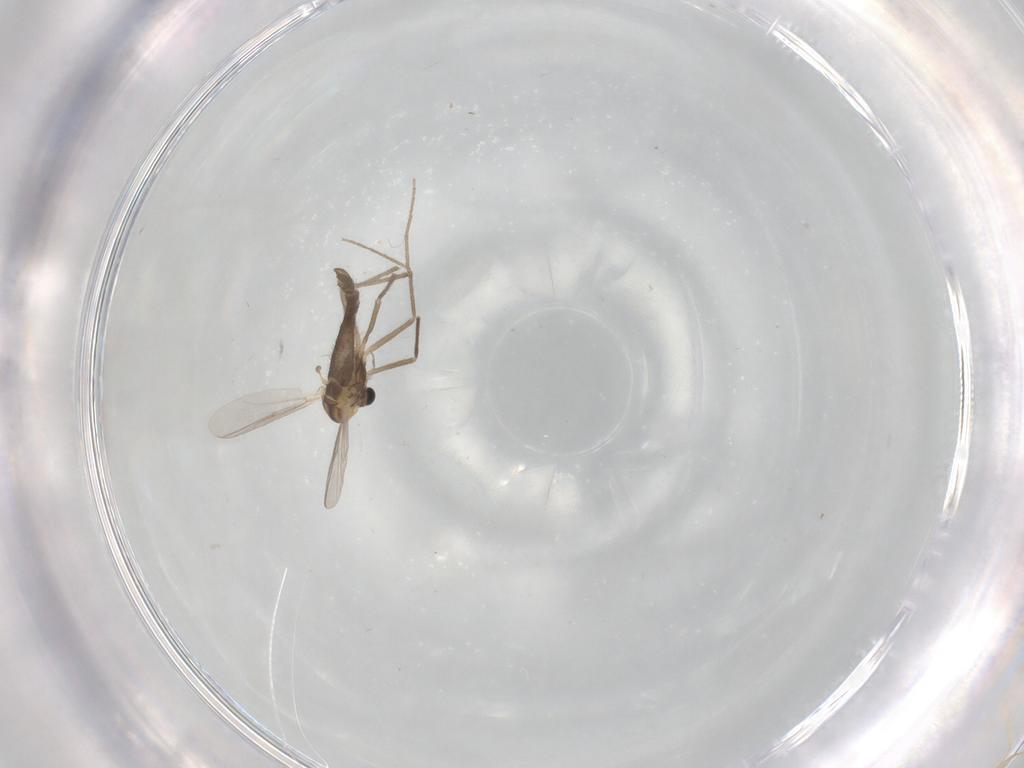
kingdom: Animalia
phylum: Arthropoda
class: Insecta
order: Diptera
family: Chironomidae
